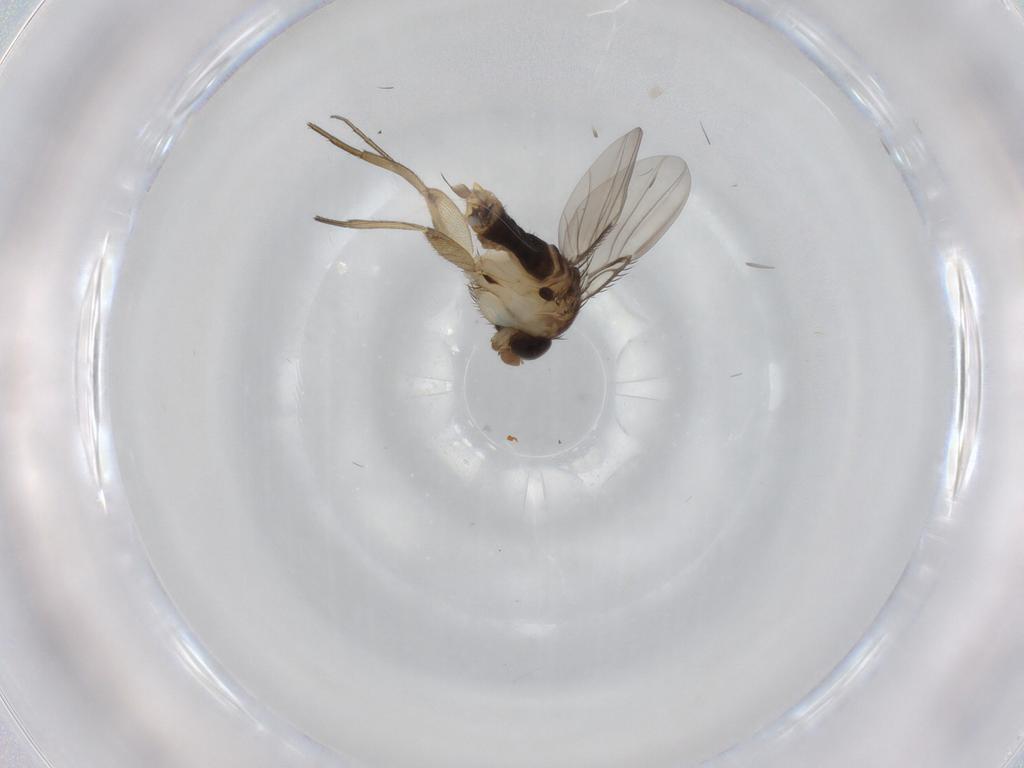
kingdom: Animalia
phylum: Arthropoda
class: Insecta
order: Diptera
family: Phoridae
